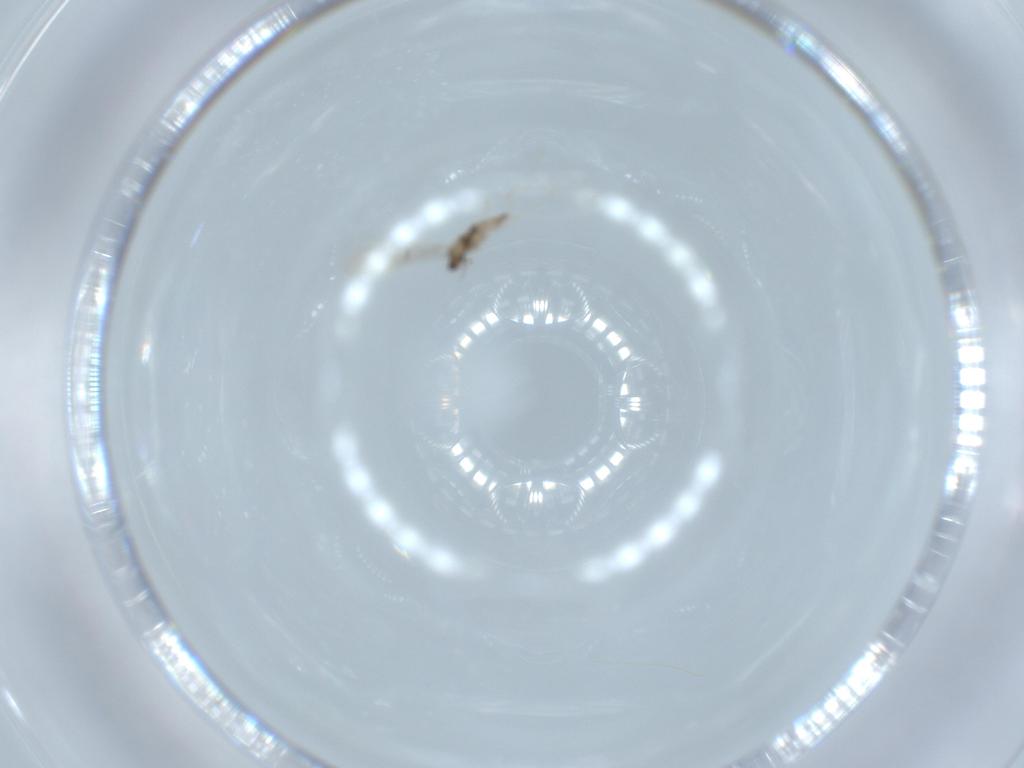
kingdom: Animalia
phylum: Arthropoda
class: Insecta
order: Diptera
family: Cecidomyiidae
